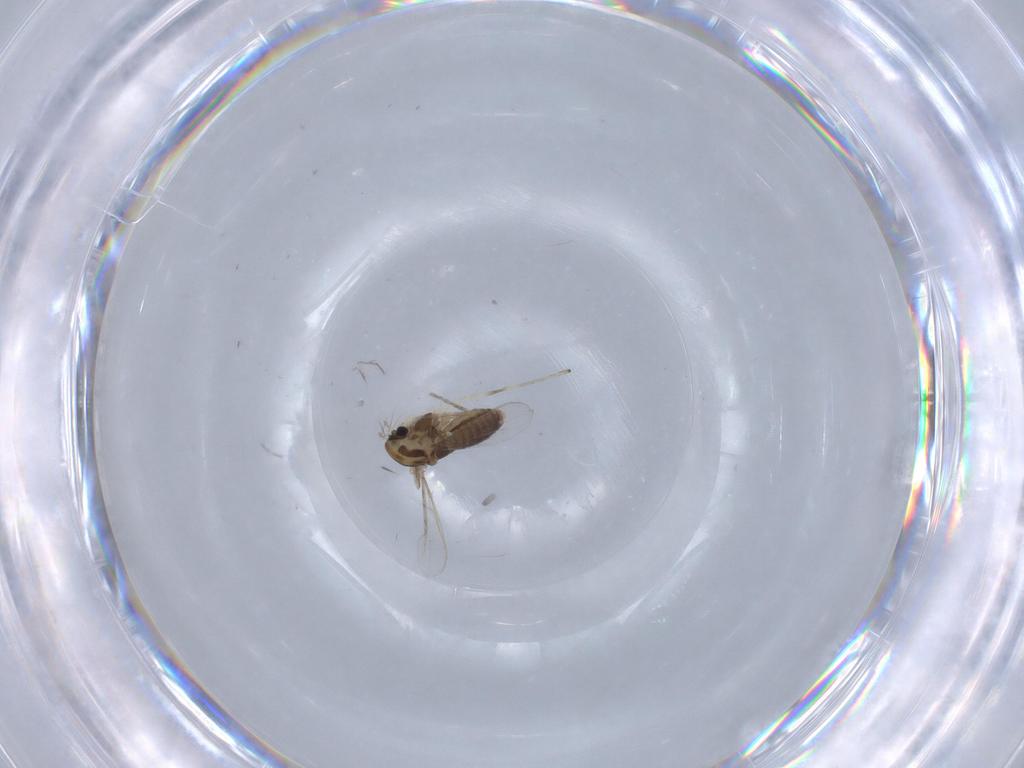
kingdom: Animalia
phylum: Arthropoda
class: Insecta
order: Diptera
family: Chironomidae
